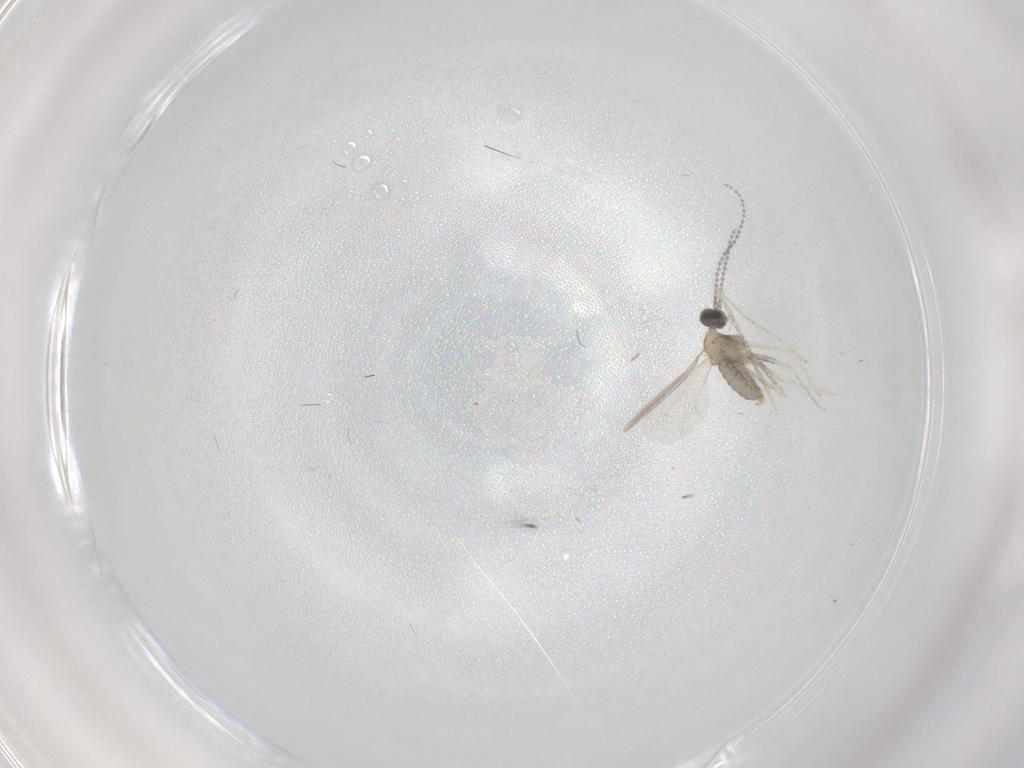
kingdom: Animalia
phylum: Arthropoda
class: Insecta
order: Diptera
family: Cecidomyiidae
